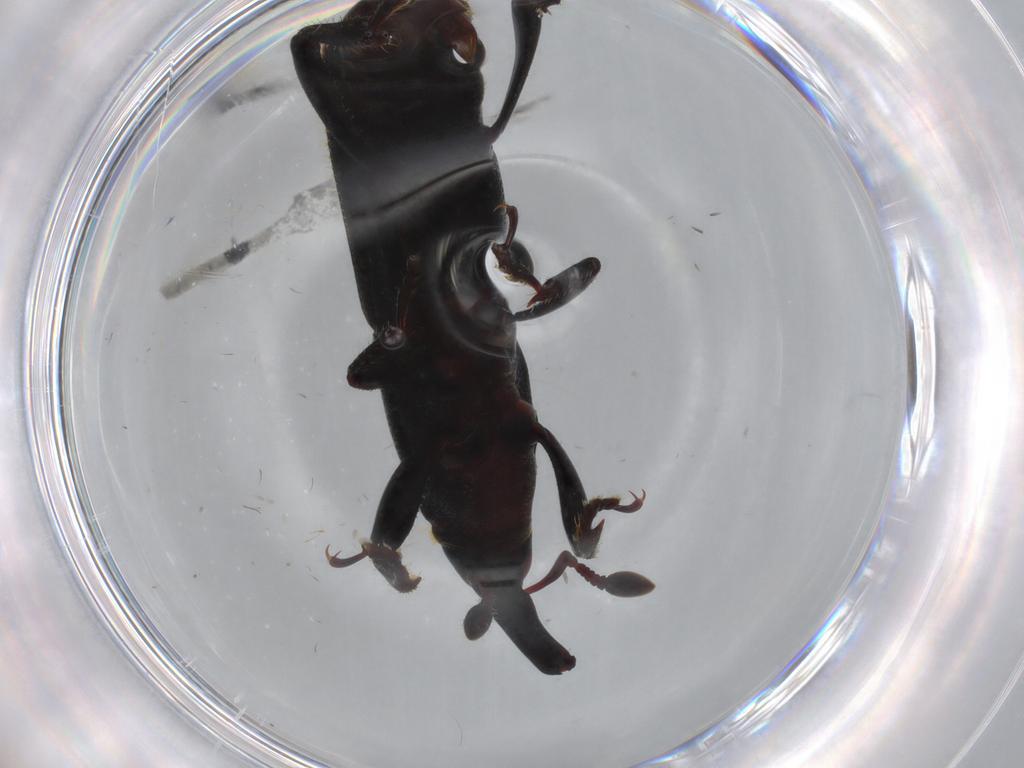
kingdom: Animalia
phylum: Arthropoda
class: Insecta
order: Coleoptera
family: Curculionidae
